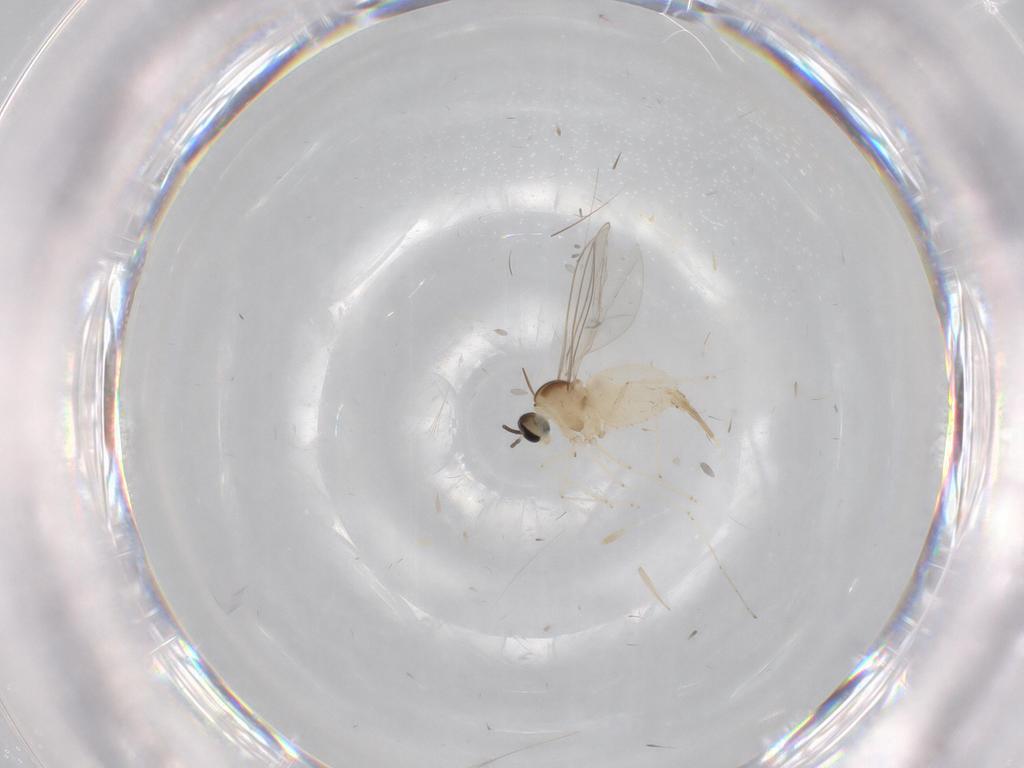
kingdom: Animalia
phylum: Arthropoda
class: Insecta
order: Diptera
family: Cecidomyiidae
